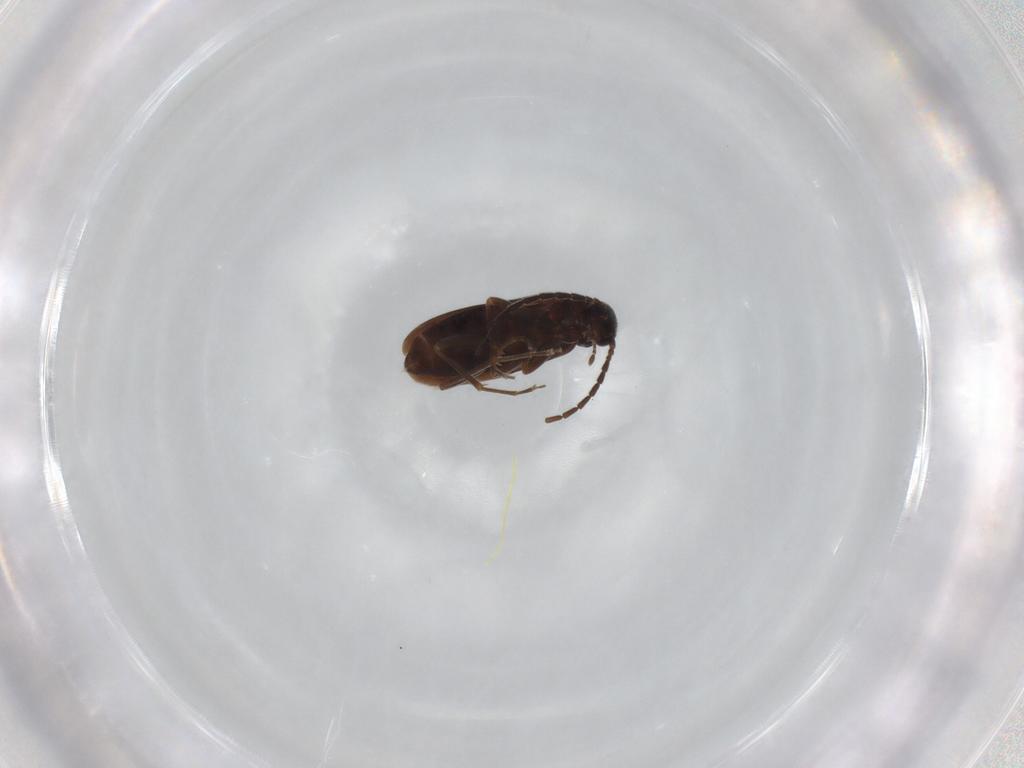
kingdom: Animalia
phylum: Arthropoda
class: Insecta
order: Coleoptera
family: Scraptiidae
